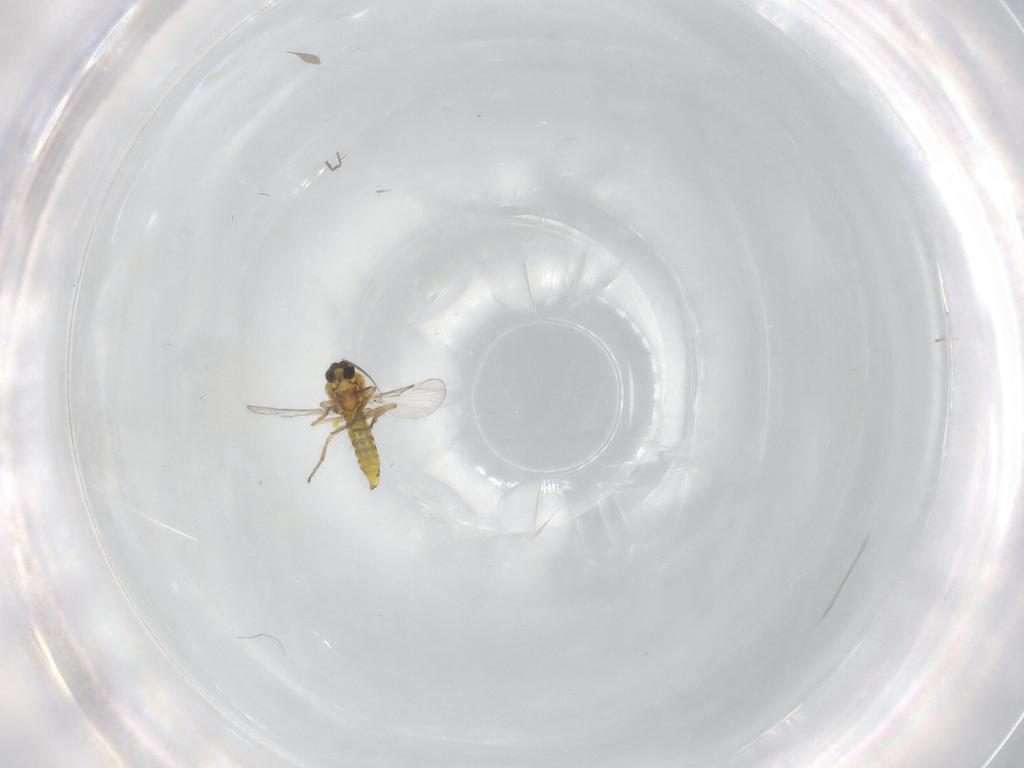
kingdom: Animalia
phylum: Arthropoda
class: Insecta
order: Diptera
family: Chironomidae
